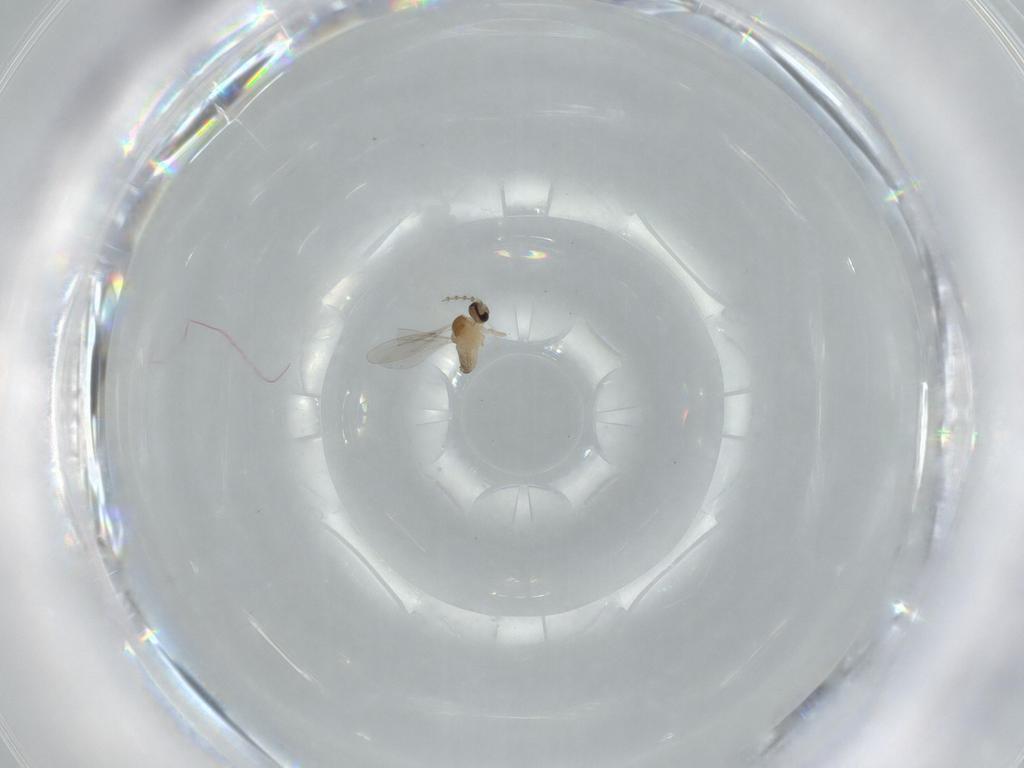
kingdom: Animalia
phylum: Arthropoda
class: Insecta
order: Diptera
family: Cecidomyiidae
